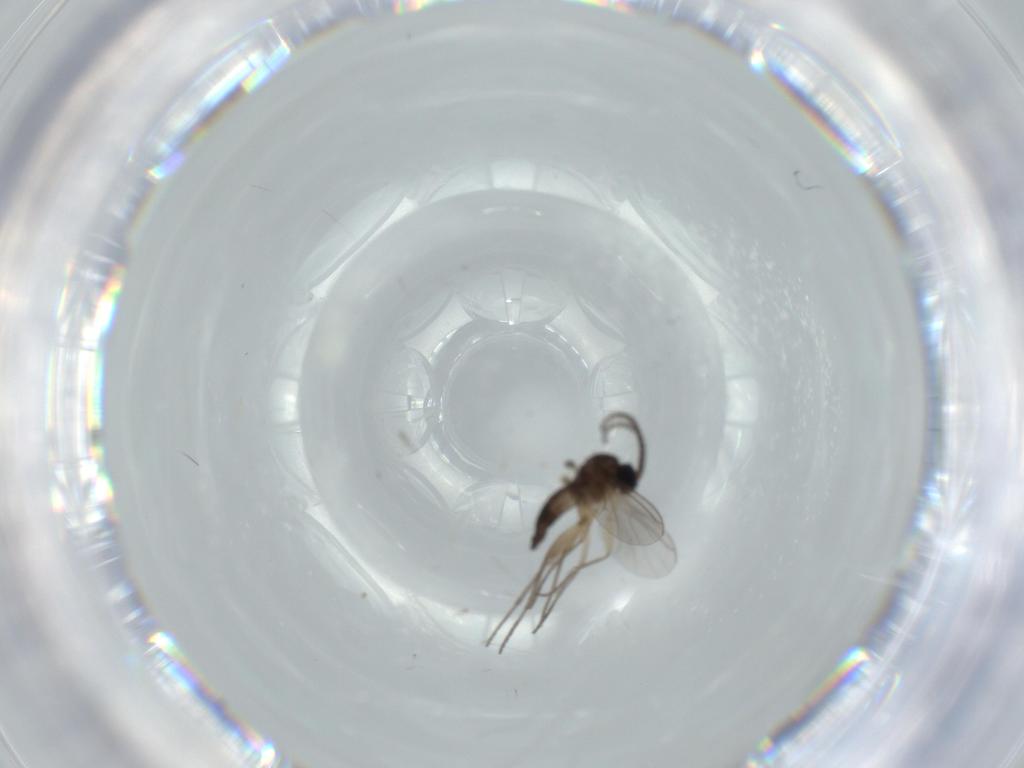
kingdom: Animalia
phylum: Arthropoda
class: Insecta
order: Diptera
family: Sciaridae
